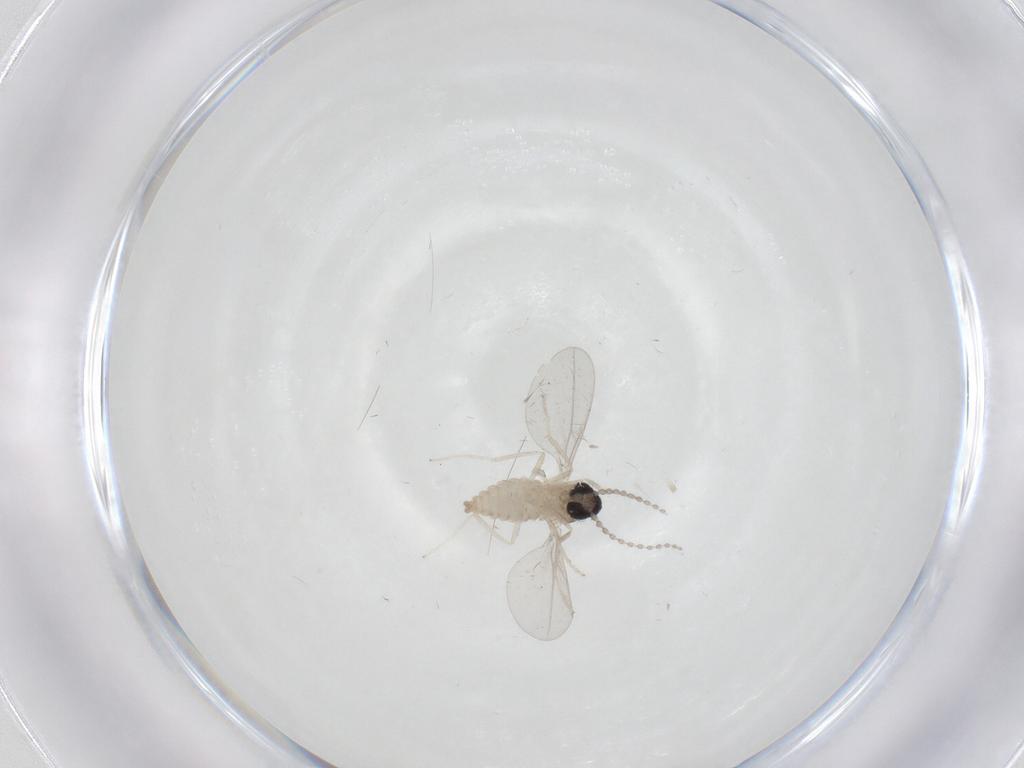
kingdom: Animalia
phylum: Arthropoda
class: Insecta
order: Diptera
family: Cecidomyiidae
